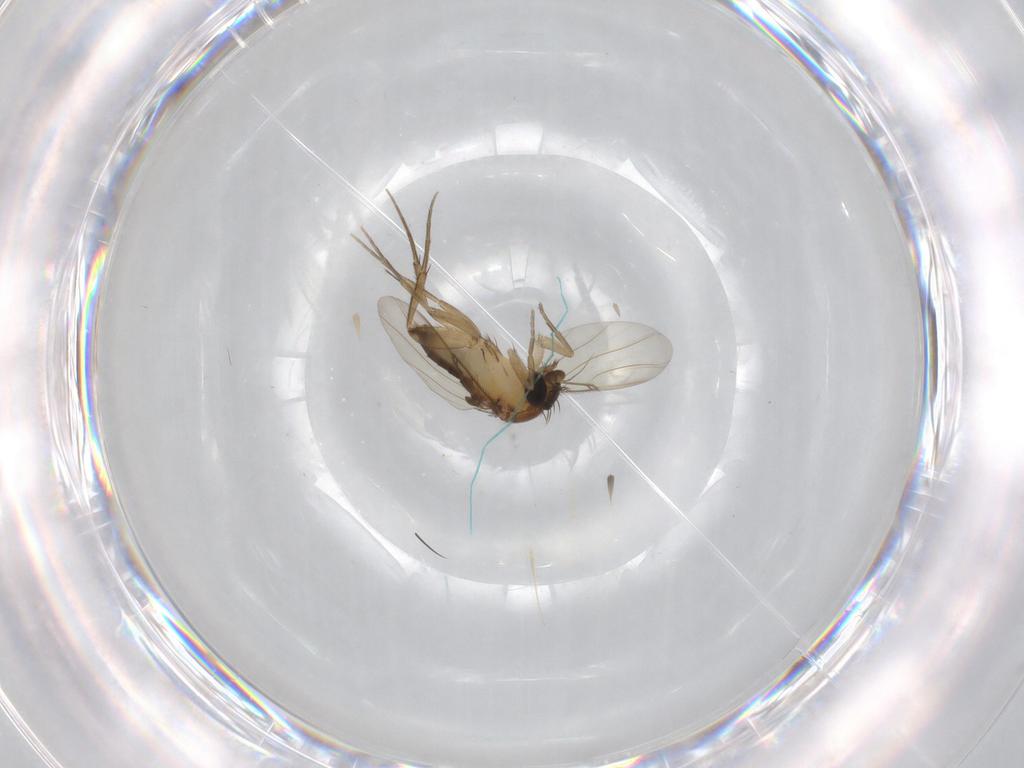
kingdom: Animalia
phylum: Arthropoda
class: Insecta
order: Diptera
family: Phoridae
